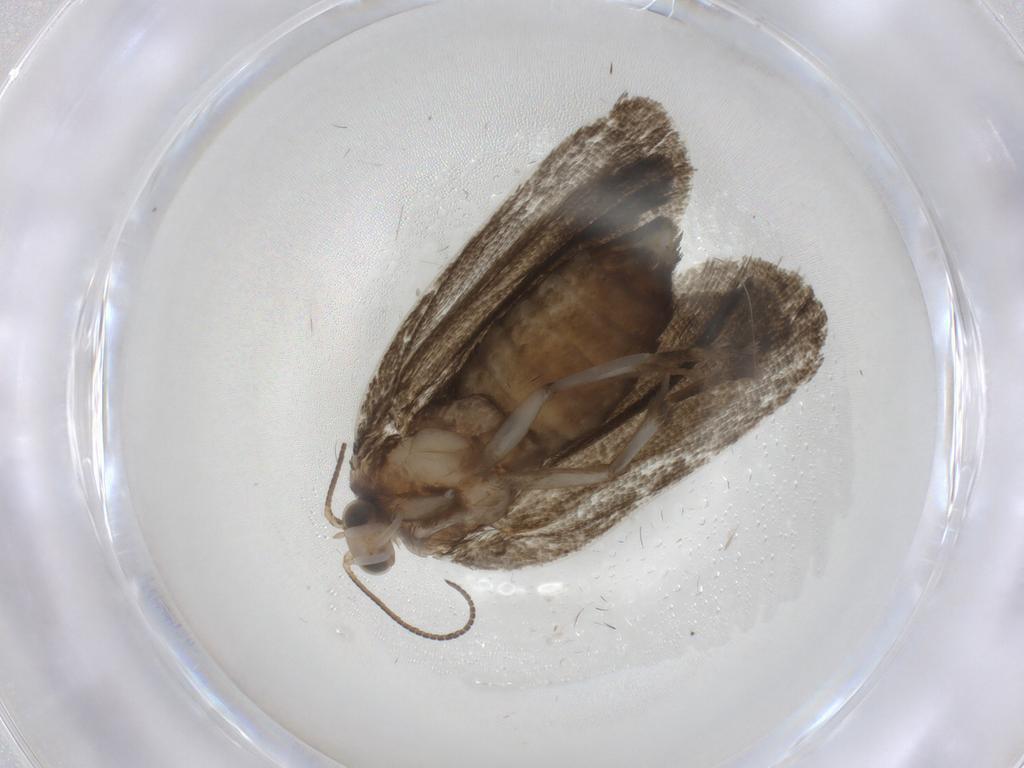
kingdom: Animalia
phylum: Arthropoda
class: Insecta
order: Lepidoptera
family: Tortricidae
